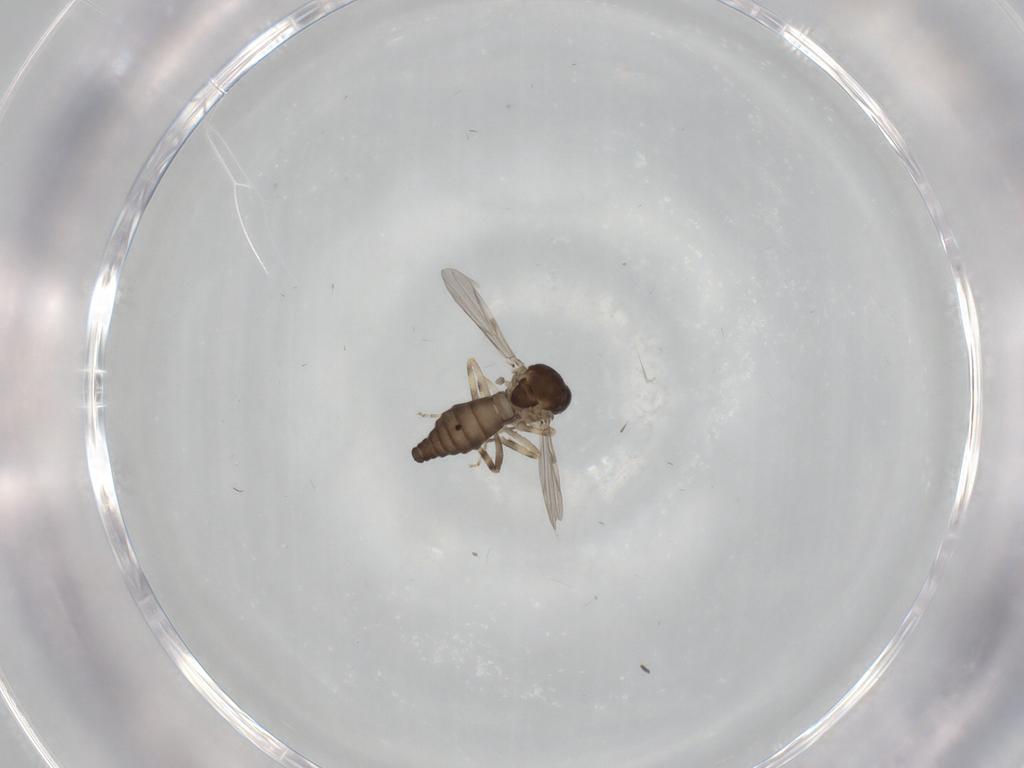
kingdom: Animalia
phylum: Arthropoda
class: Insecta
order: Diptera
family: Ceratopogonidae
